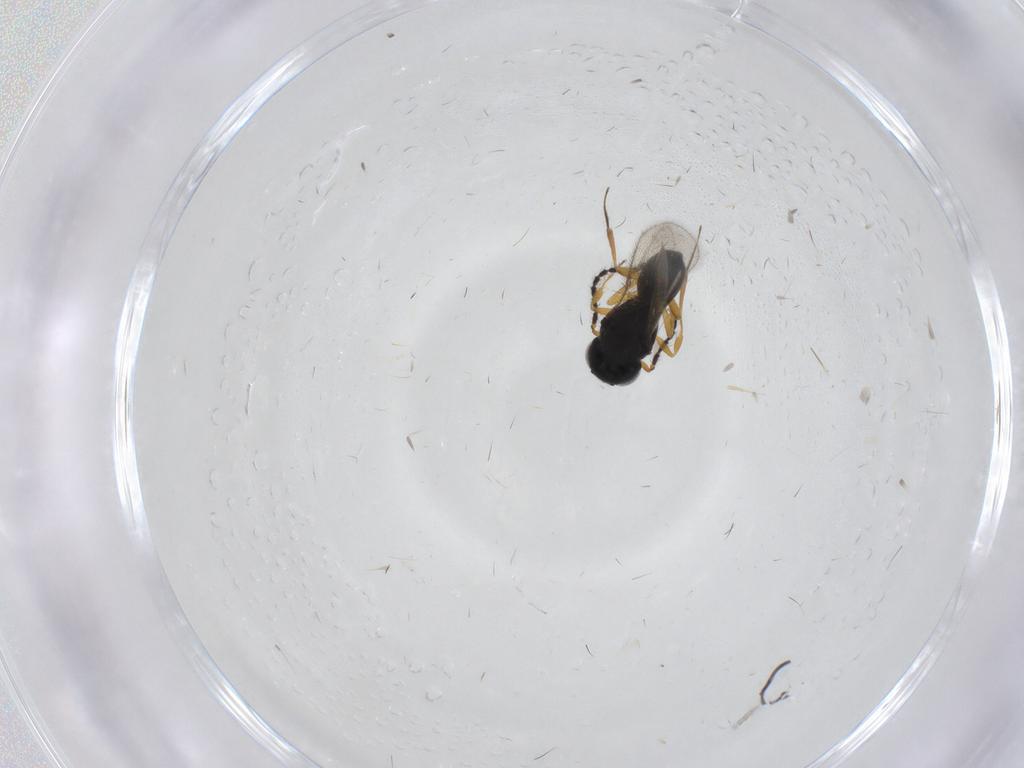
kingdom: Animalia
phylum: Arthropoda
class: Insecta
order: Hymenoptera
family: Scelionidae
